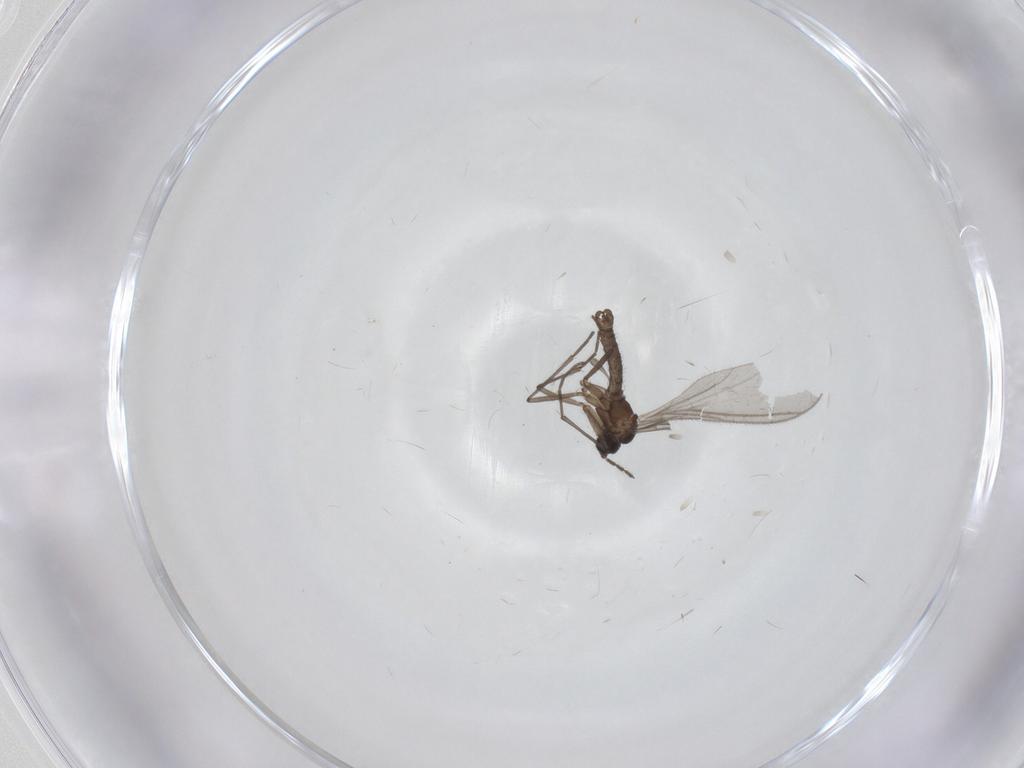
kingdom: Animalia
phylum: Arthropoda
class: Insecta
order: Diptera
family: Sciaridae
